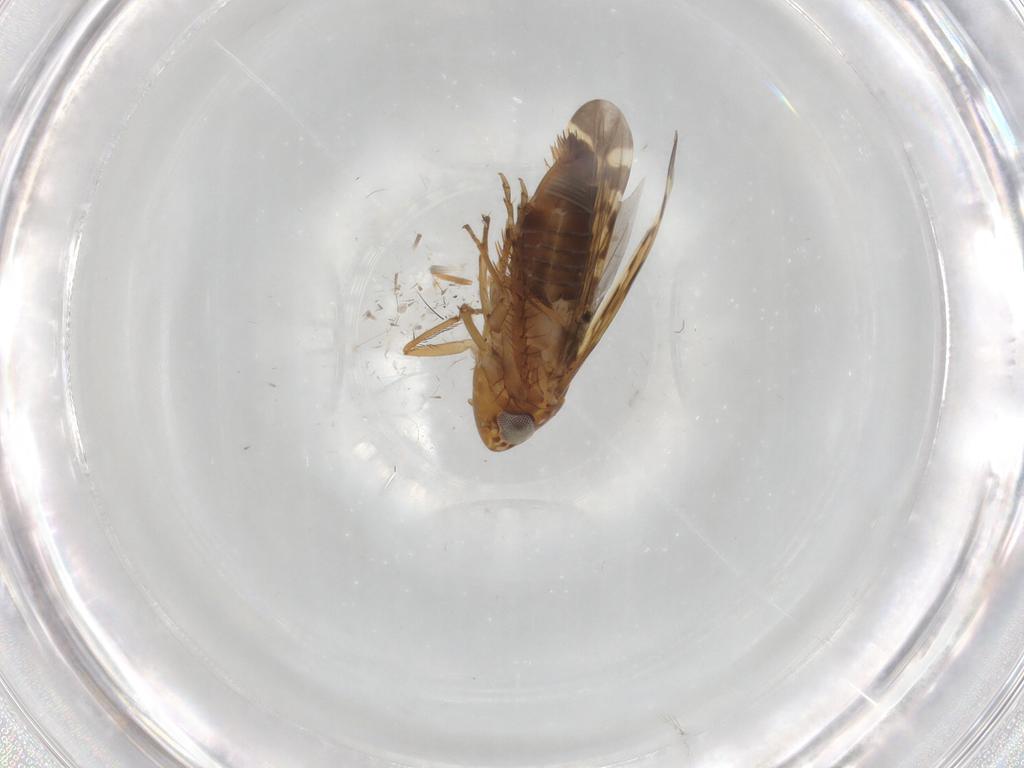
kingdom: Animalia
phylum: Arthropoda
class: Insecta
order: Hemiptera
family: Cicadellidae
